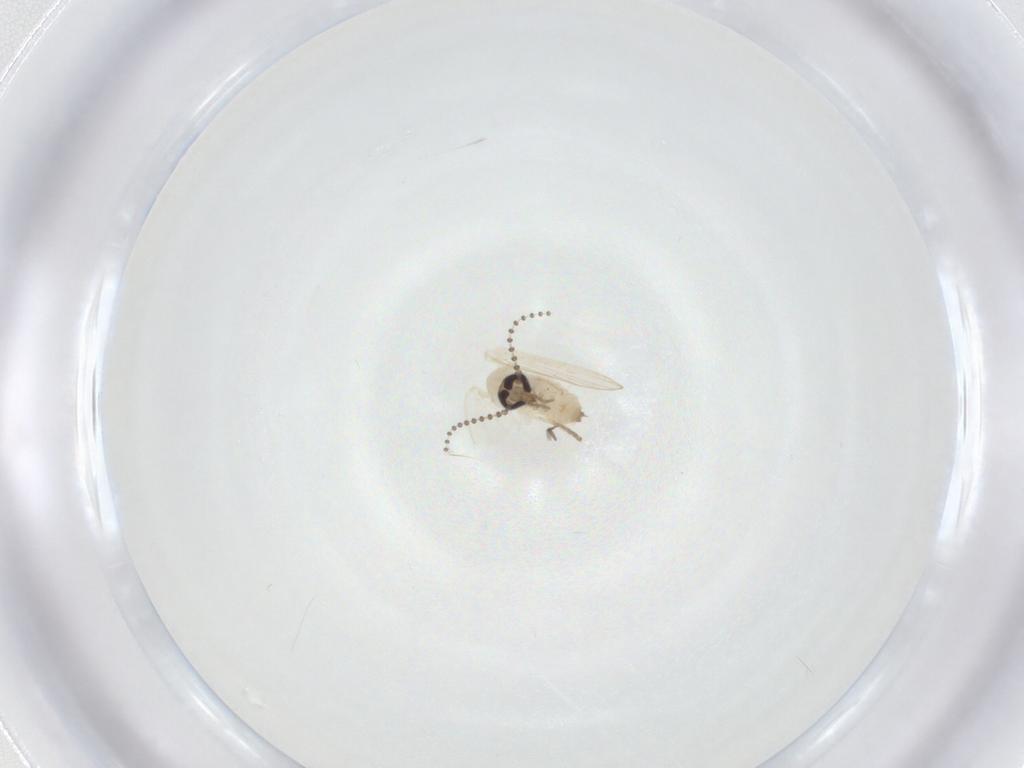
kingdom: Animalia
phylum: Arthropoda
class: Insecta
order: Diptera
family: Psychodidae
